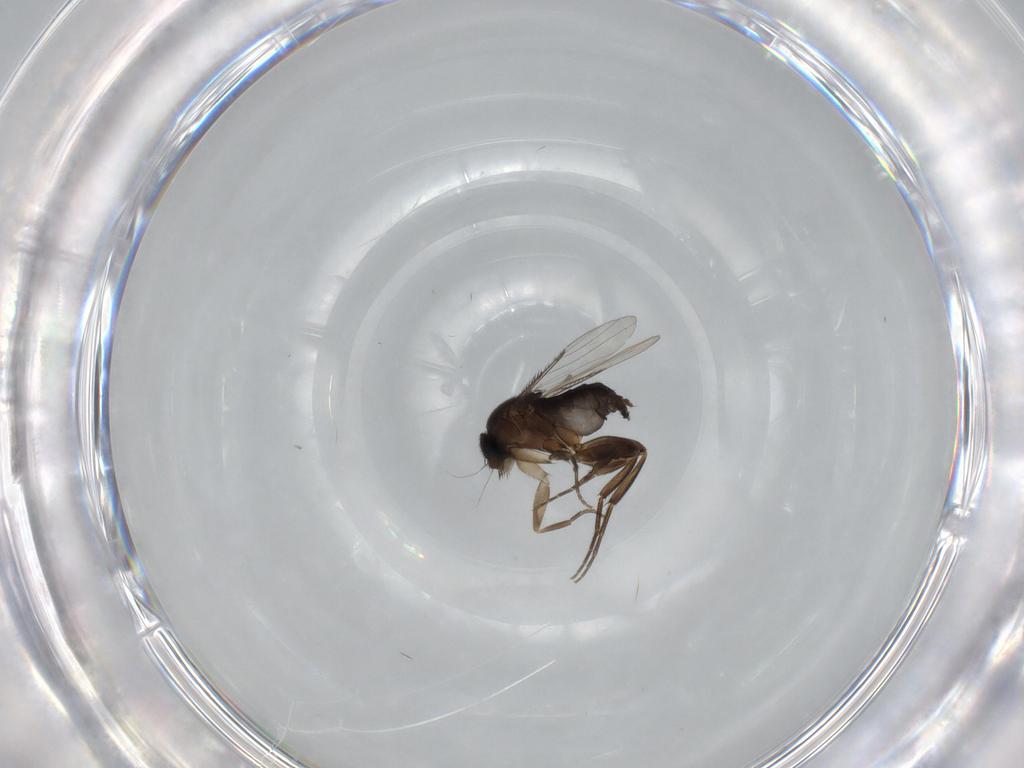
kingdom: Animalia
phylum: Arthropoda
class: Insecta
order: Diptera
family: Phoridae
